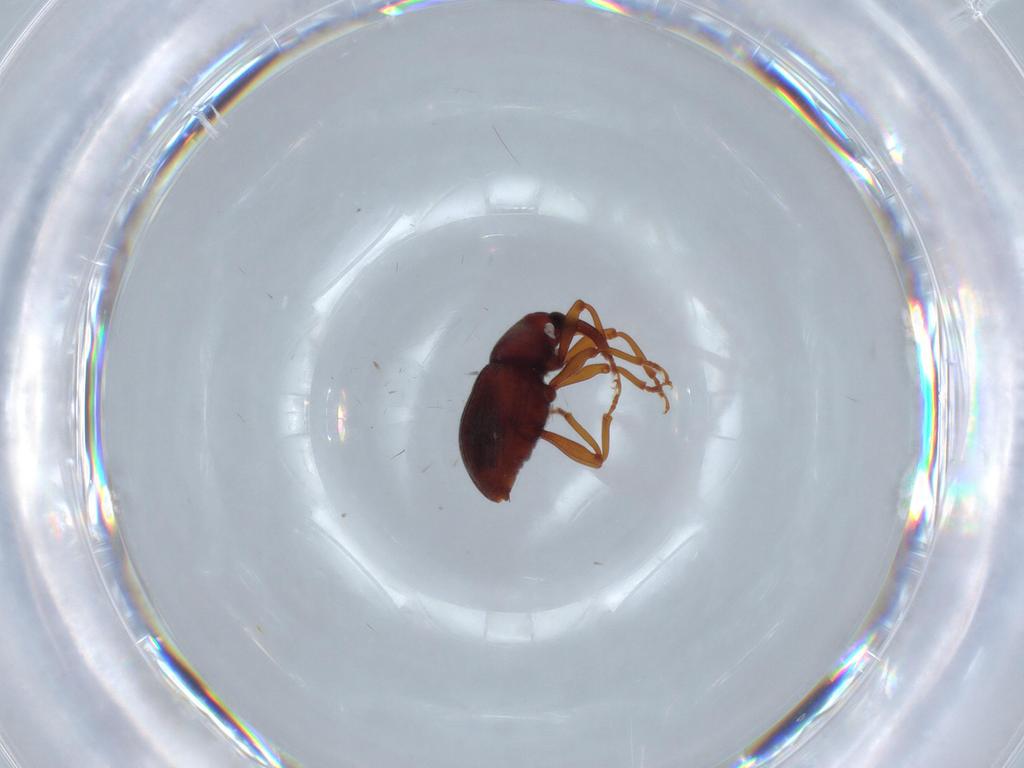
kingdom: Animalia
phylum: Arthropoda
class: Insecta
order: Coleoptera
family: Curculionidae
